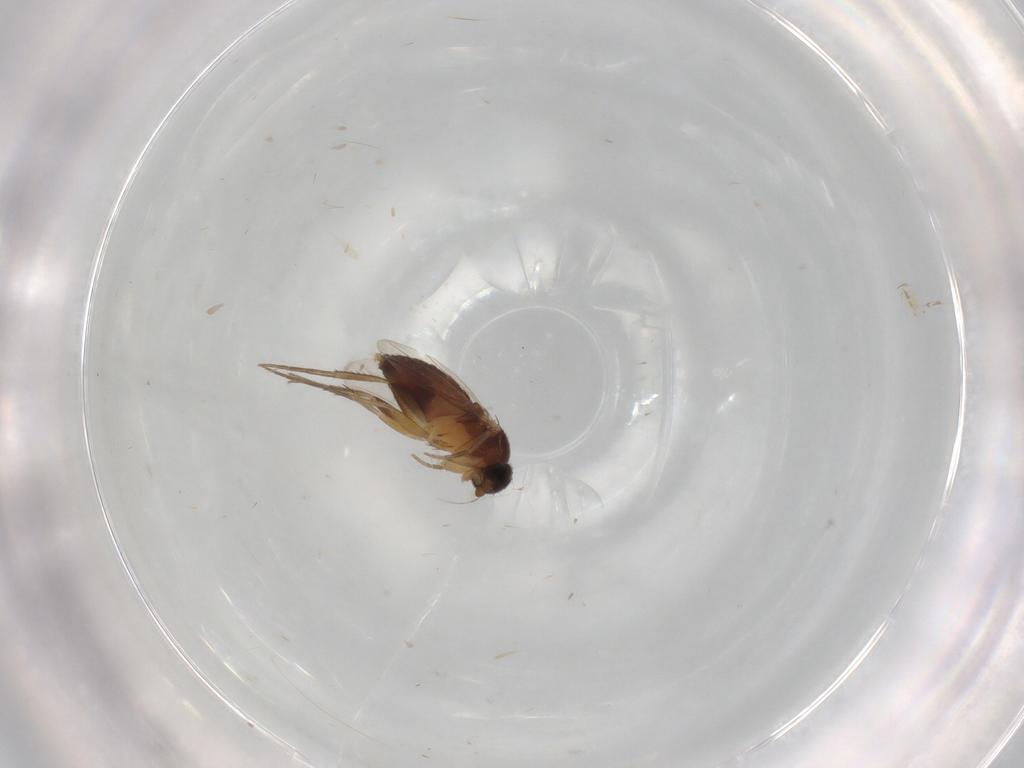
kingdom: Animalia
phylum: Arthropoda
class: Insecta
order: Diptera
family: Phoridae
